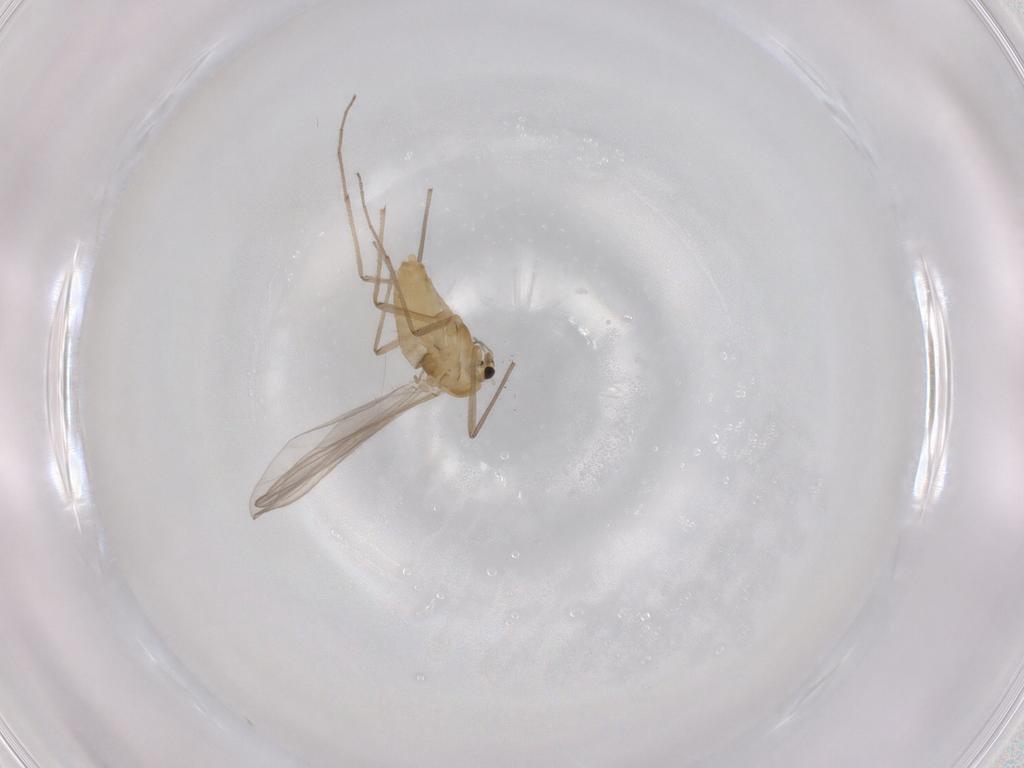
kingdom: Animalia
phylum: Arthropoda
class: Insecta
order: Diptera
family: Chironomidae
